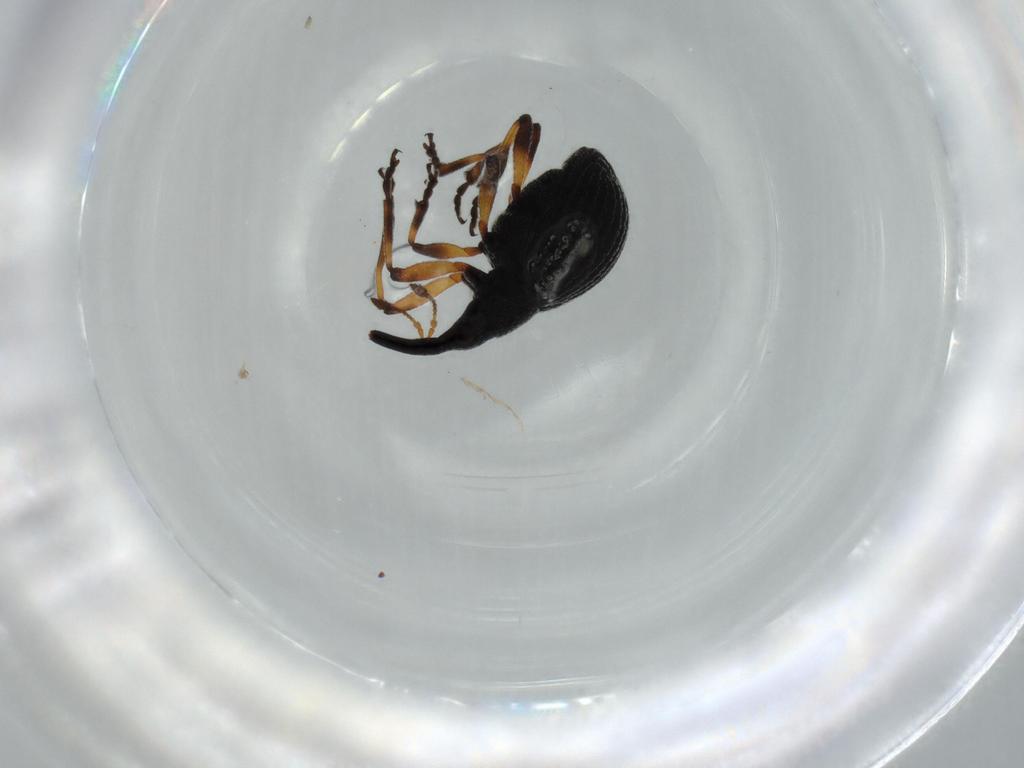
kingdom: Animalia
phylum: Arthropoda
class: Insecta
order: Coleoptera
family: Brentidae
